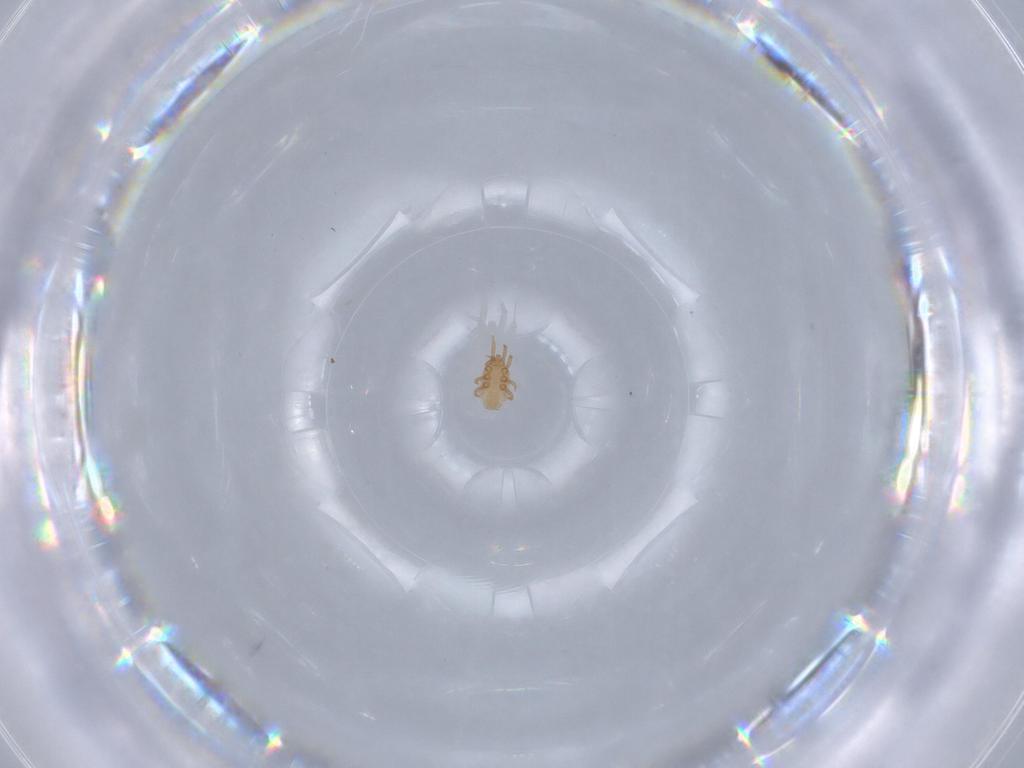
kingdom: Animalia
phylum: Arthropoda
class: Arachnida
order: Mesostigmata
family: Dinychidae
